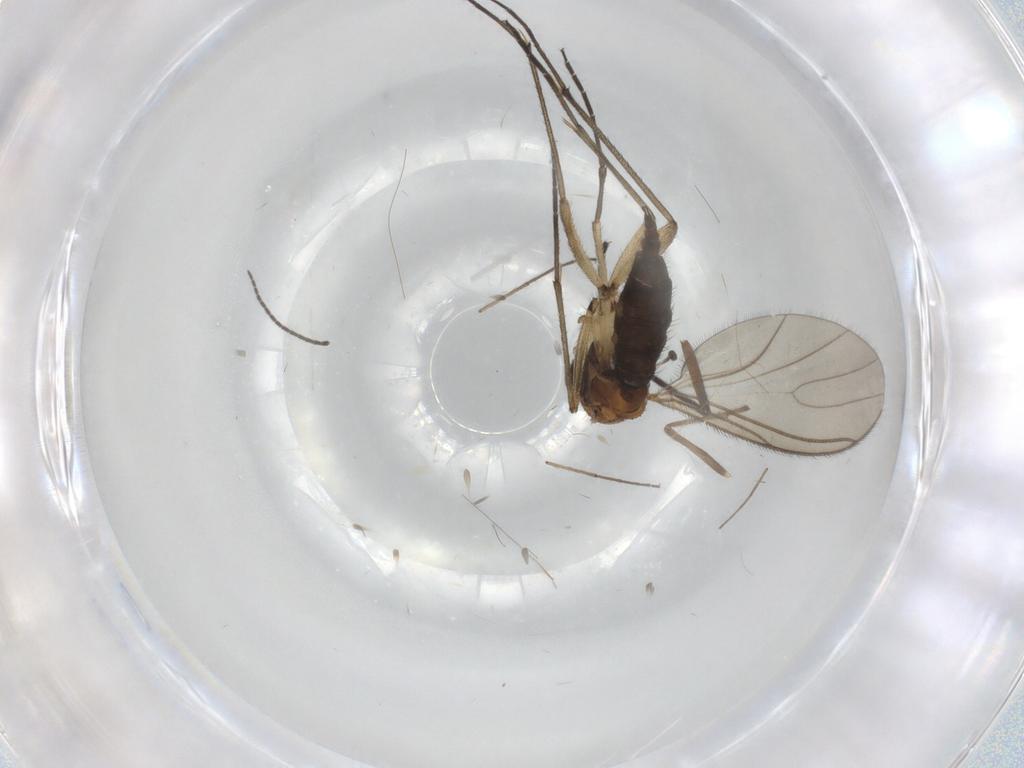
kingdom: Animalia
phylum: Arthropoda
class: Insecta
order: Diptera
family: Sciaridae
